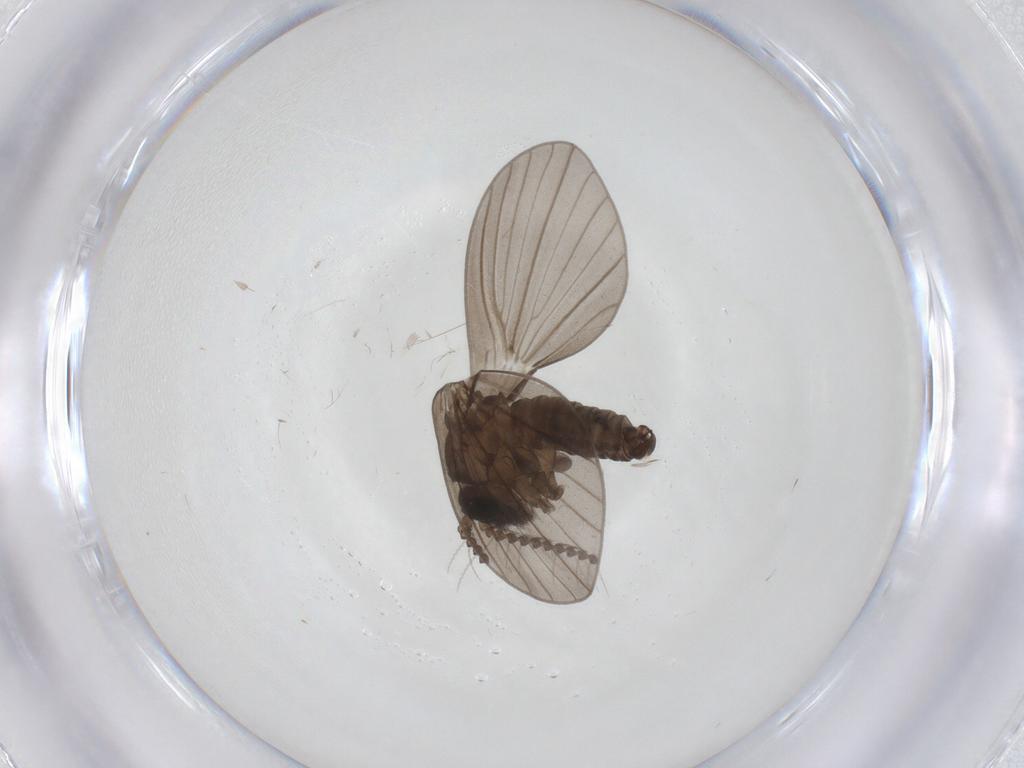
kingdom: Animalia
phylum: Arthropoda
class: Insecta
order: Diptera
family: Cecidomyiidae
